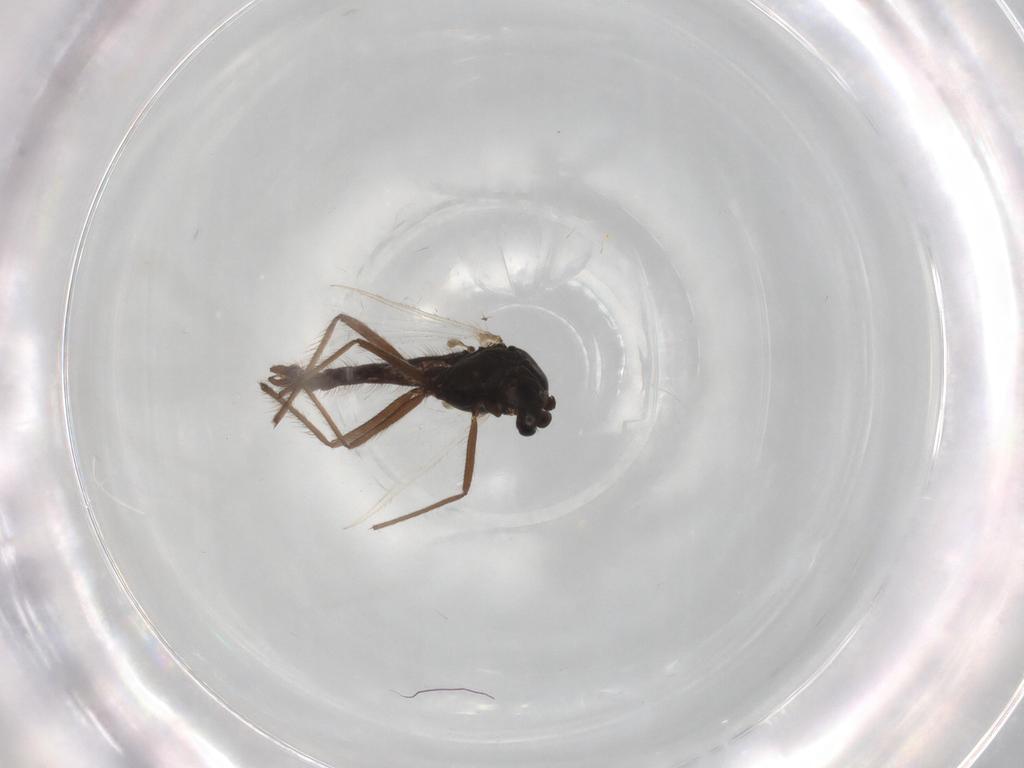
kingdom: Animalia
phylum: Arthropoda
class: Insecta
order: Diptera
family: Hybotidae
